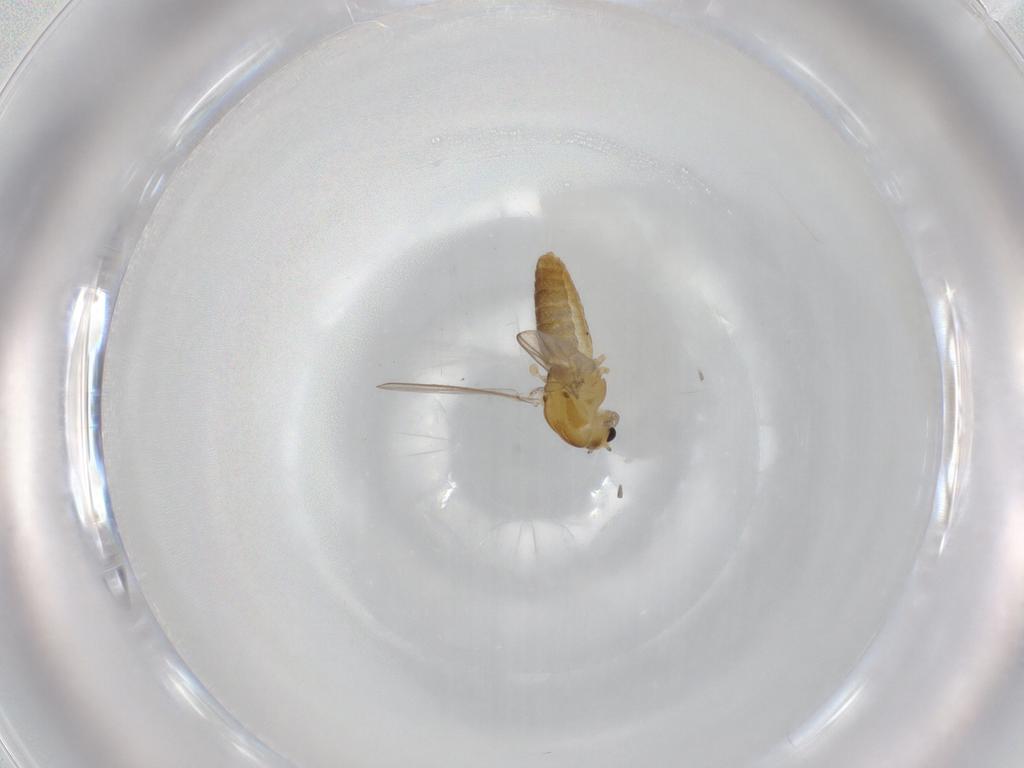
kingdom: Animalia
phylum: Arthropoda
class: Insecta
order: Diptera
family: Chironomidae
